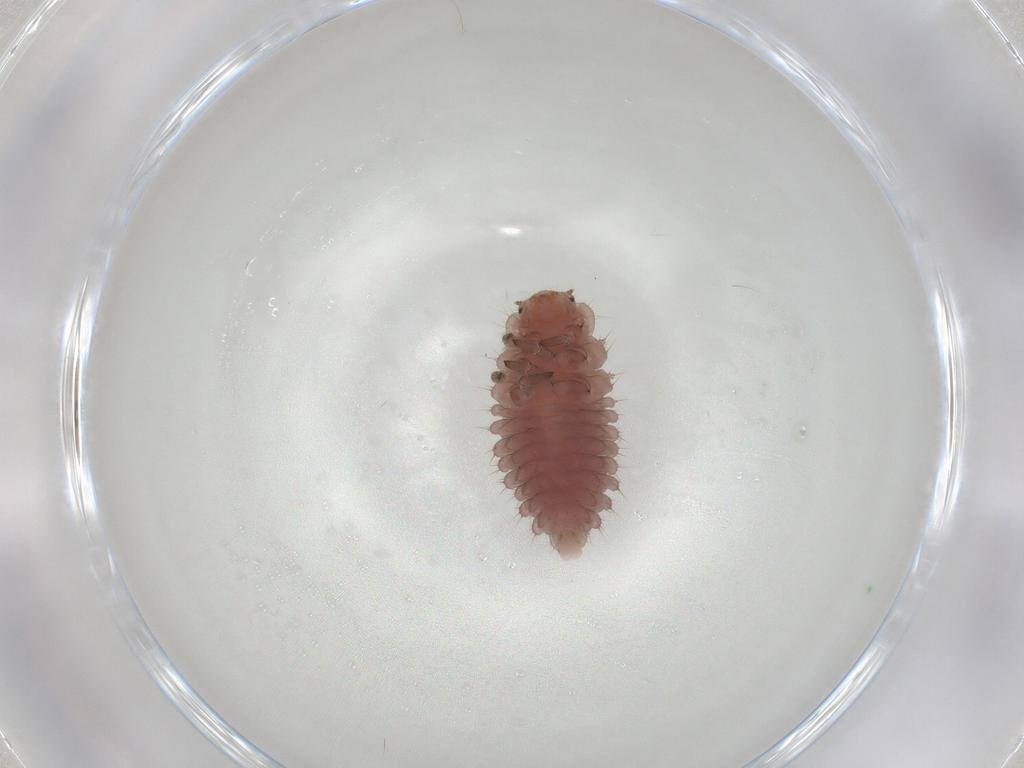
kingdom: Animalia
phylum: Arthropoda
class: Insecta
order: Coleoptera
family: Coccinellidae
